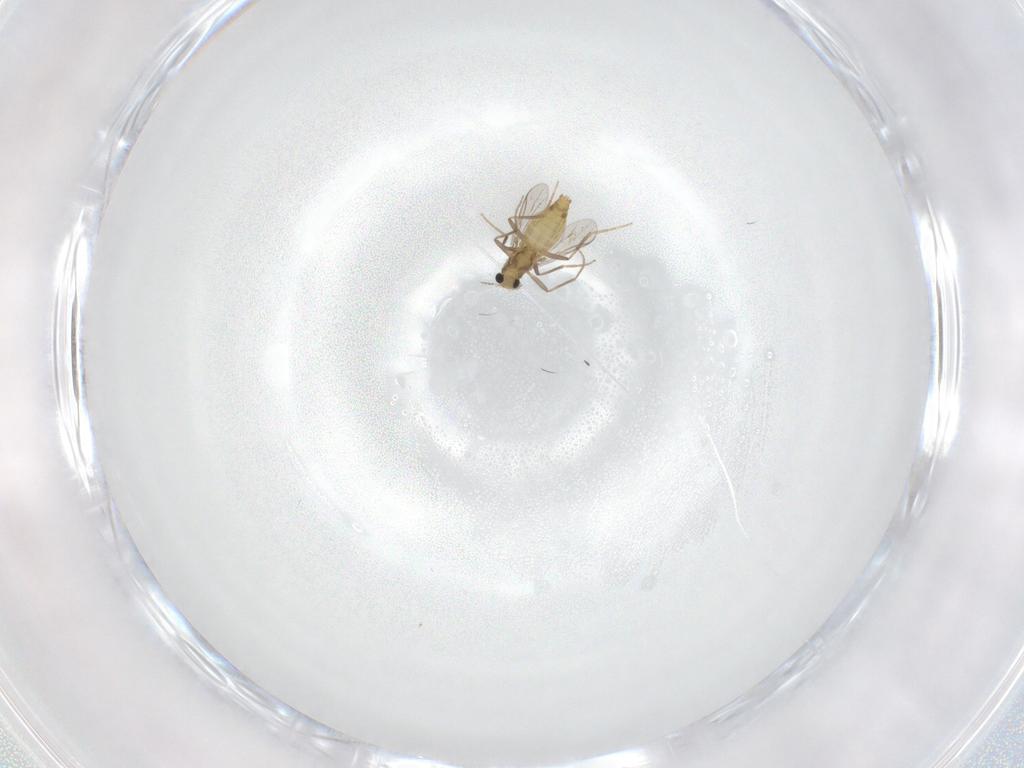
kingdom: Animalia
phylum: Arthropoda
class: Insecta
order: Diptera
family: Chironomidae
